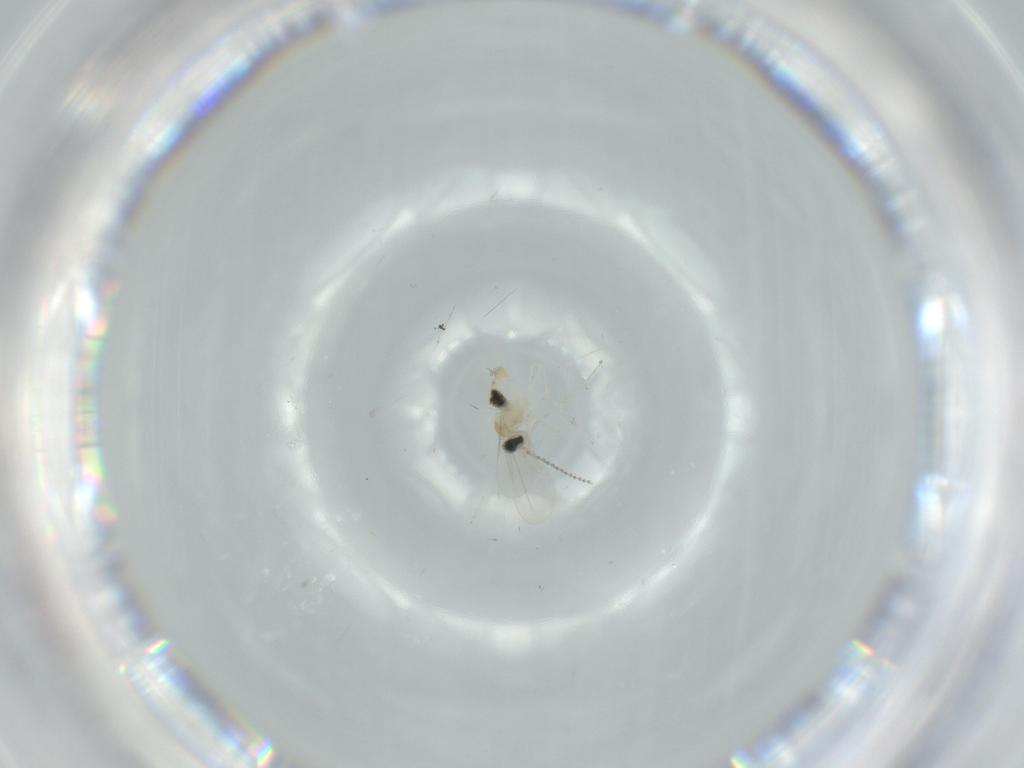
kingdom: Animalia
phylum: Arthropoda
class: Insecta
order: Diptera
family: Cecidomyiidae
